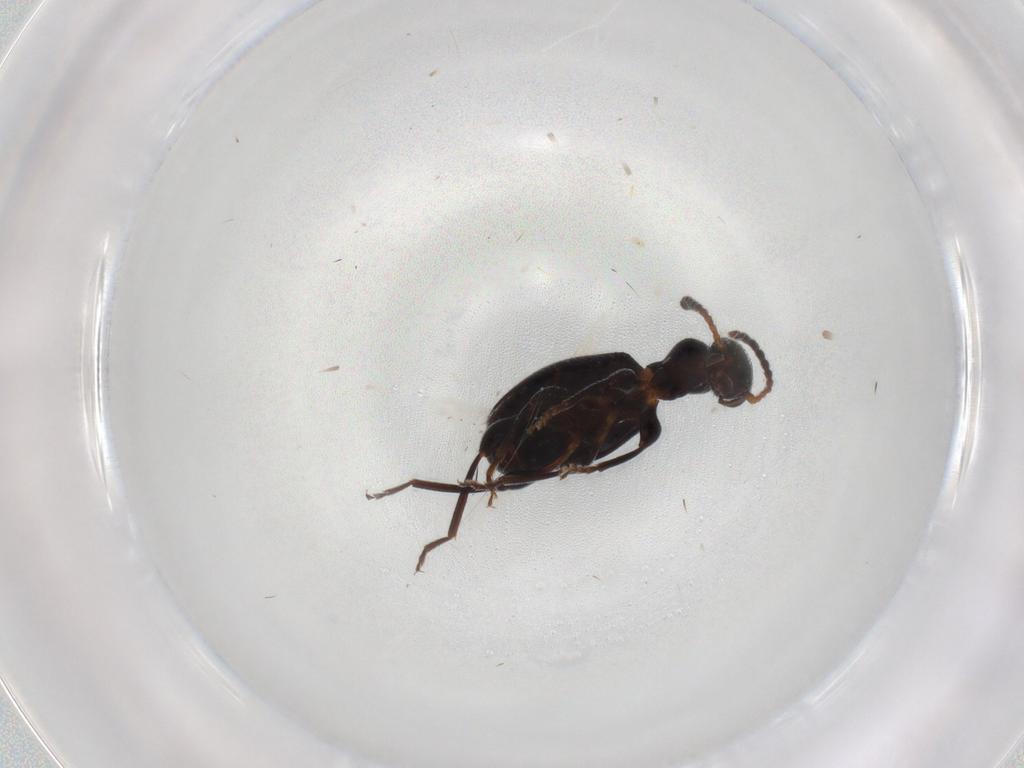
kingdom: Animalia
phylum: Arthropoda
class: Insecta
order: Coleoptera
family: Anthicidae
